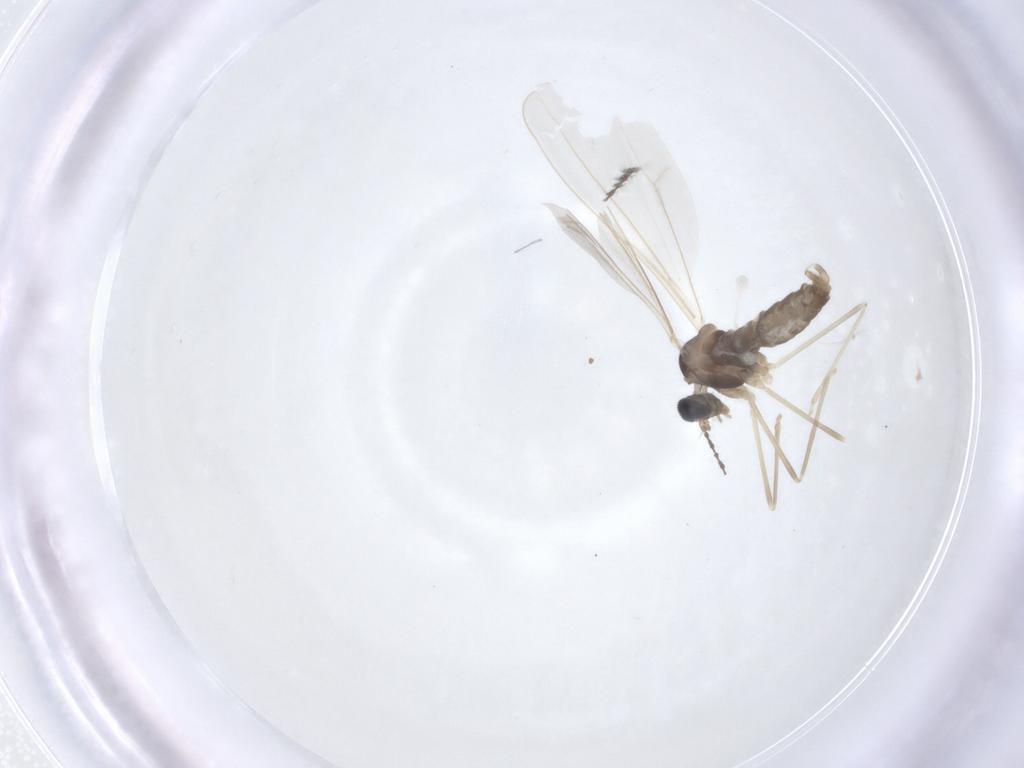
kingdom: Animalia
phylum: Arthropoda
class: Insecta
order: Diptera
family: Cecidomyiidae
